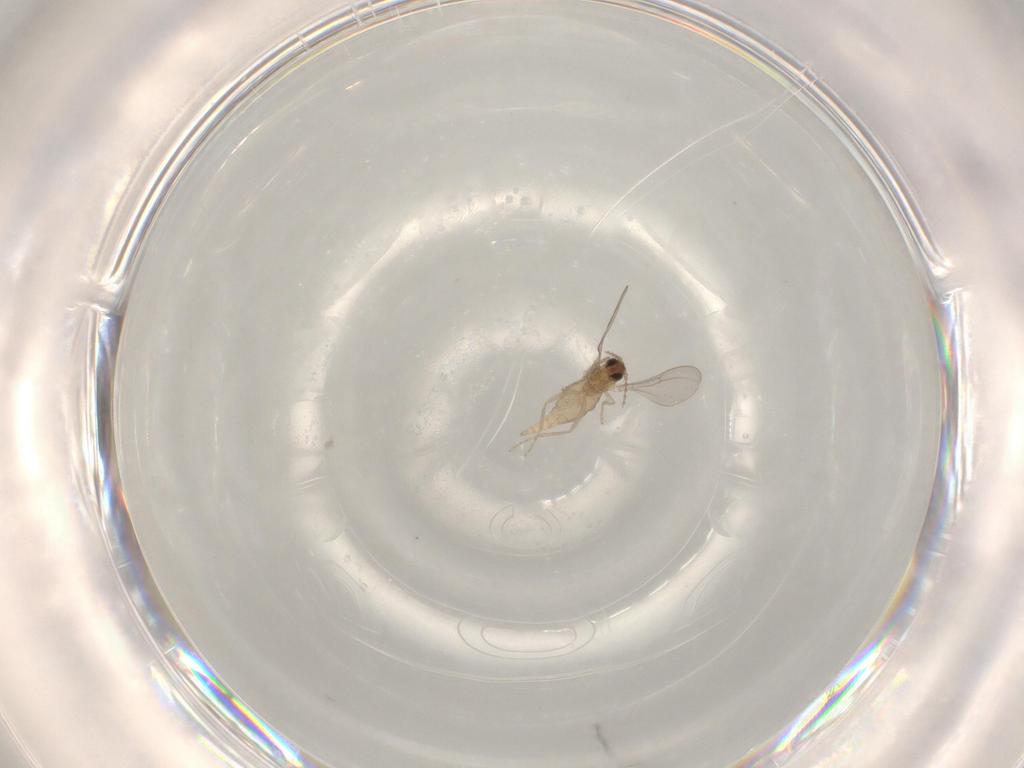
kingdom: Animalia
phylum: Arthropoda
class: Insecta
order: Diptera
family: Cecidomyiidae
